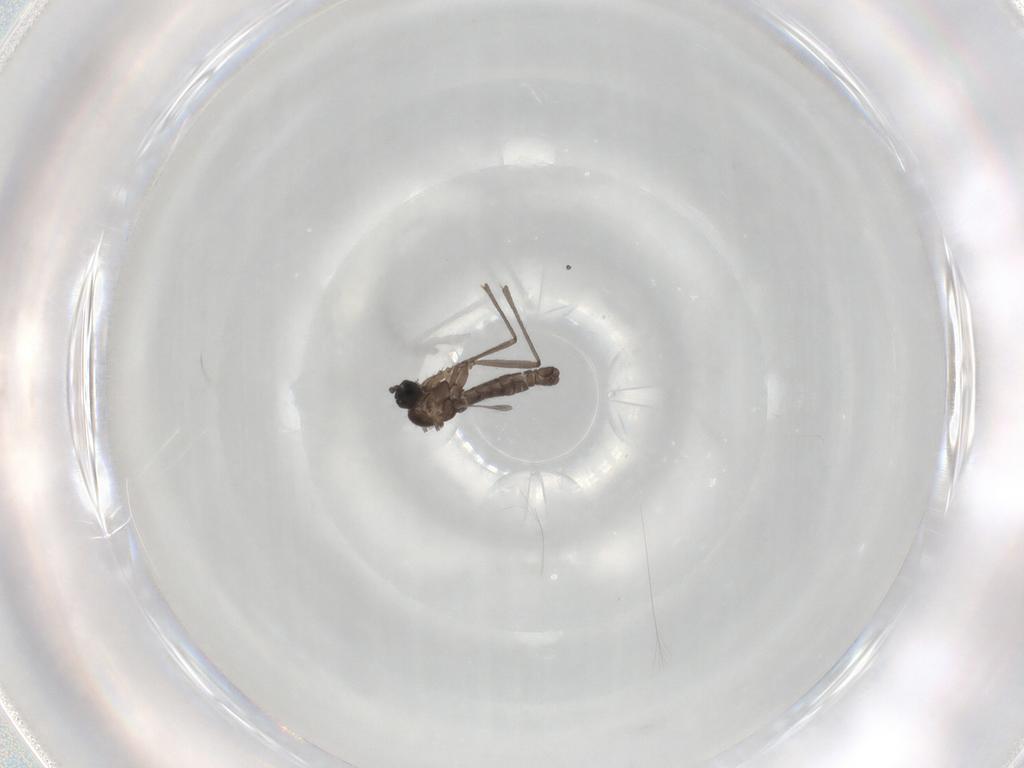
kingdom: Animalia
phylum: Arthropoda
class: Insecta
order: Diptera
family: Sciaridae
